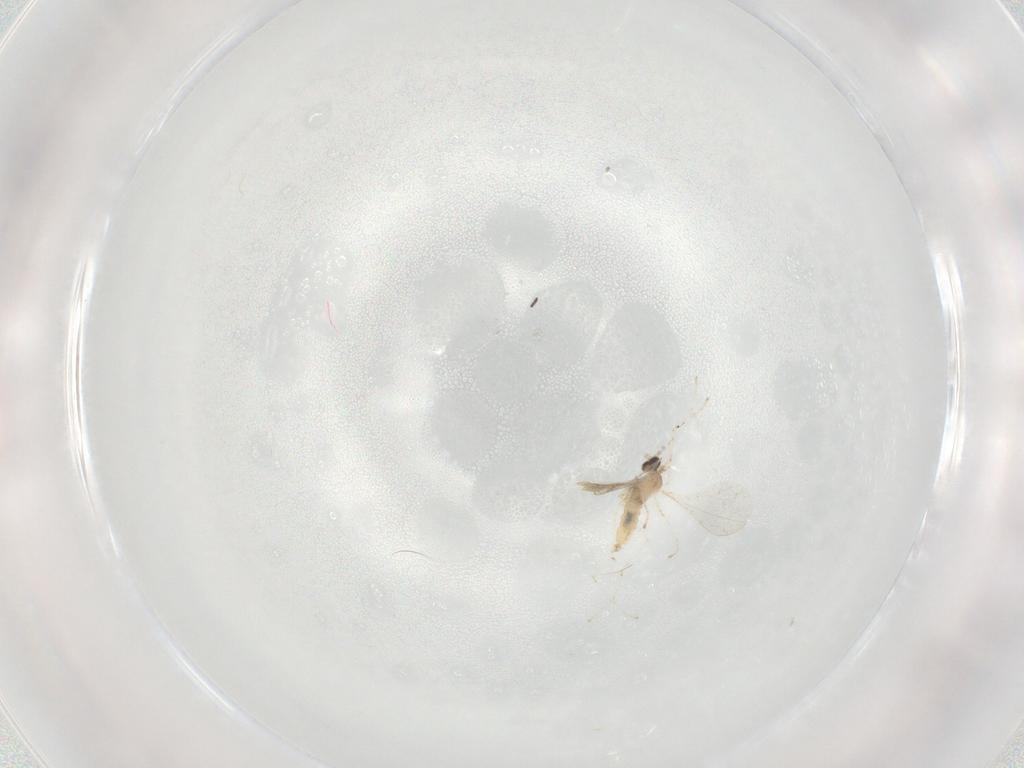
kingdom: Animalia
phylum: Arthropoda
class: Insecta
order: Diptera
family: Cecidomyiidae
